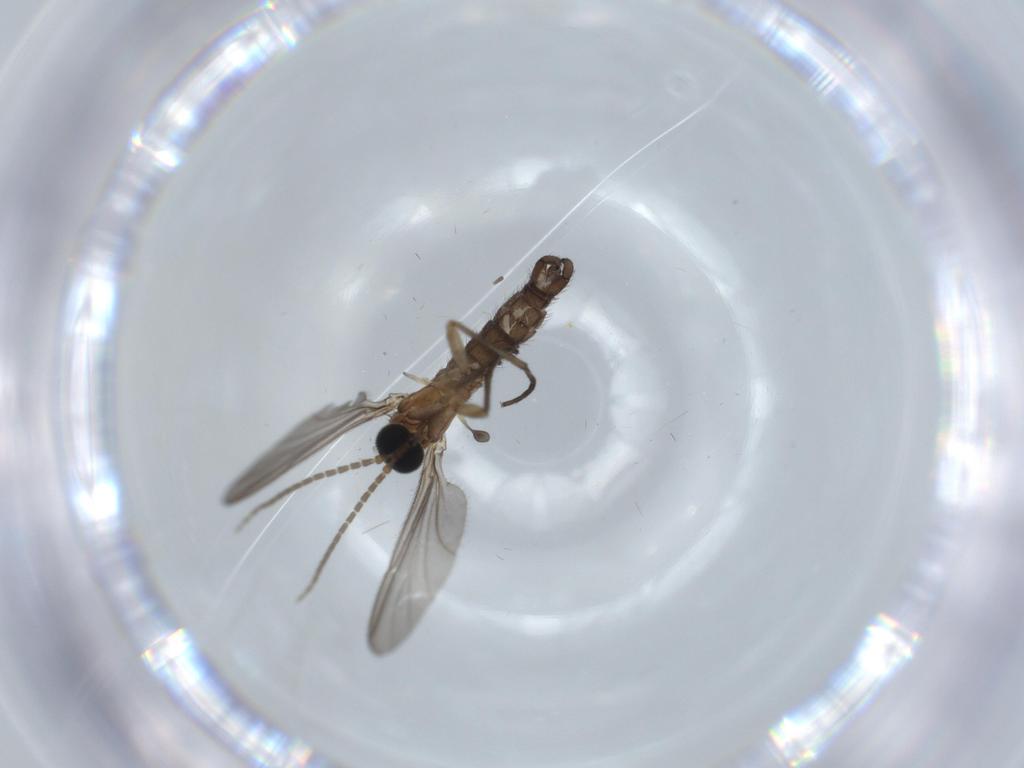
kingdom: Animalia
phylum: Arthropoda
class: Insecta
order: Diptera
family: Sciaridae
